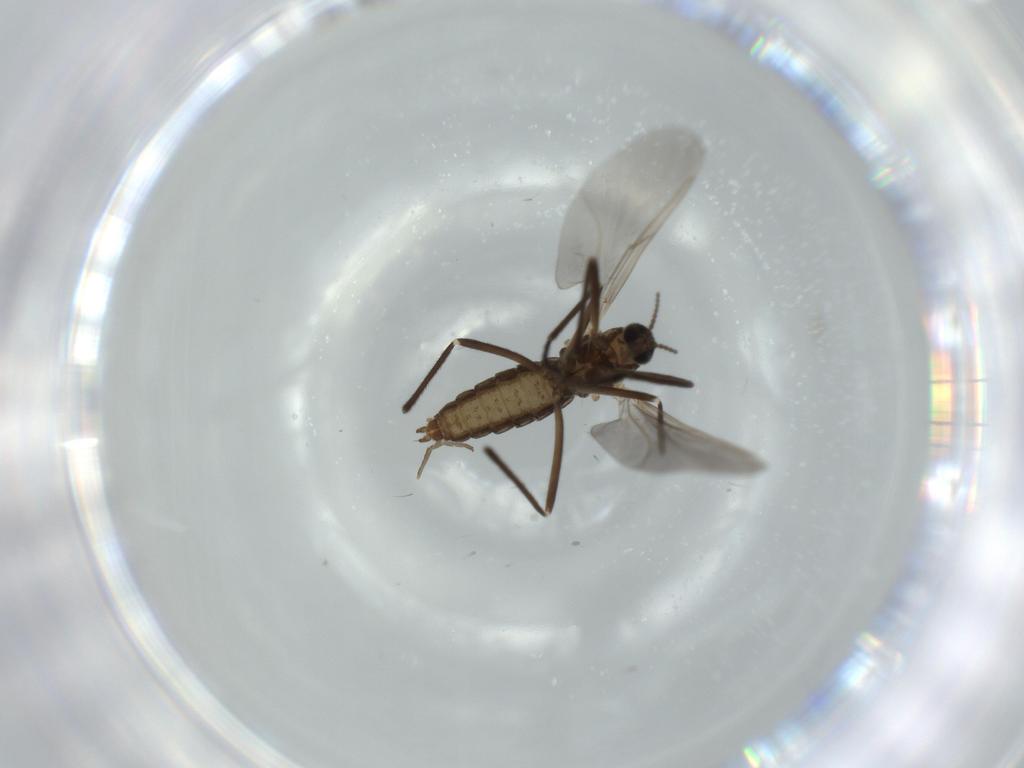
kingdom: Animalia
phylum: Arthropoda
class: Insecta
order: Diptera
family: Cecidomyiidae
